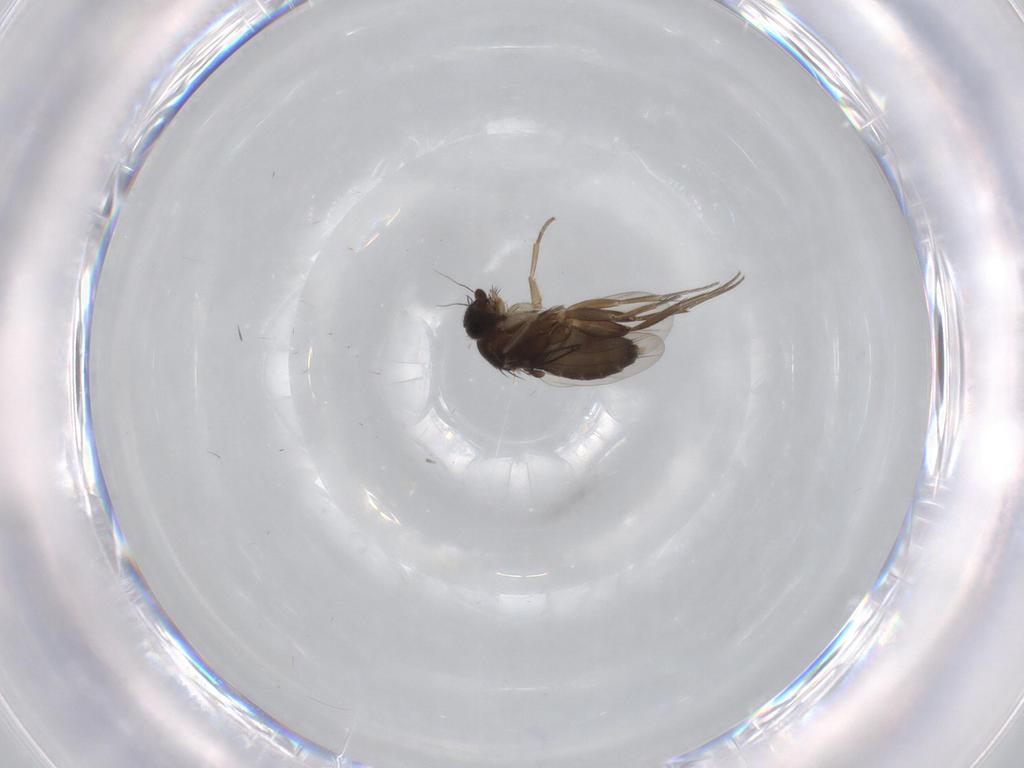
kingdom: Animalia
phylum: Arthropoda
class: Insecta
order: Diptera
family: Phoridae
